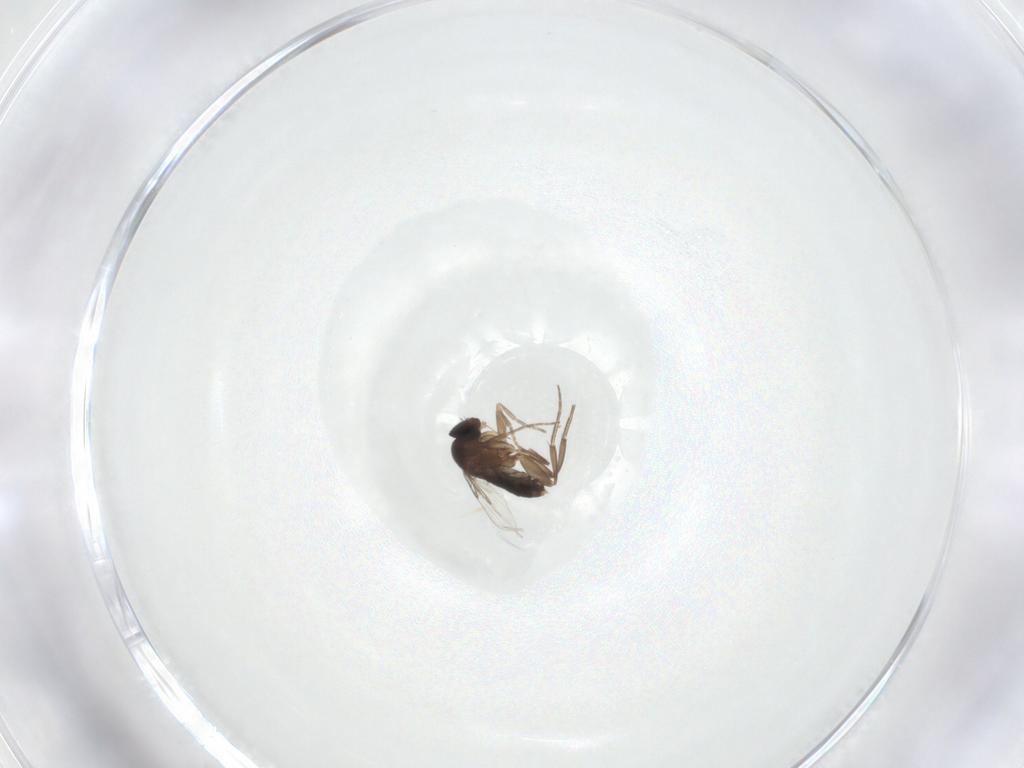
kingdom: Animalia
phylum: Arthropoda
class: Insecta
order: Diptera
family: Phoridae
